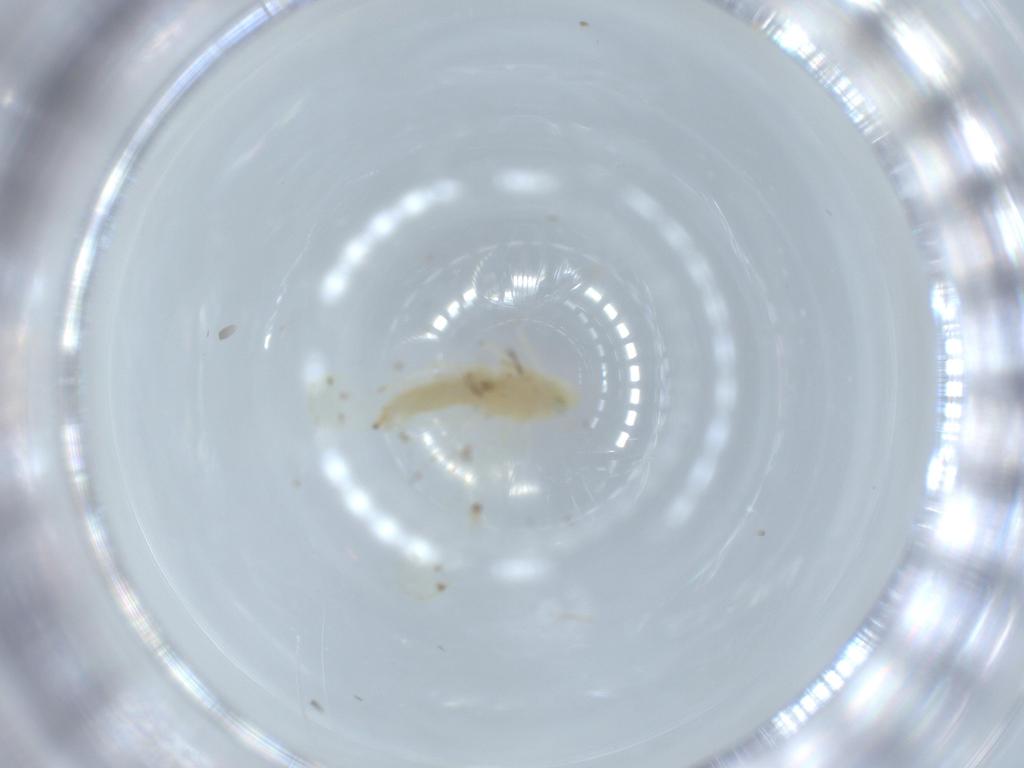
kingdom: Animalia
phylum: Arthropoda
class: Insecta
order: Hemiptera
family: Cicadellidae
